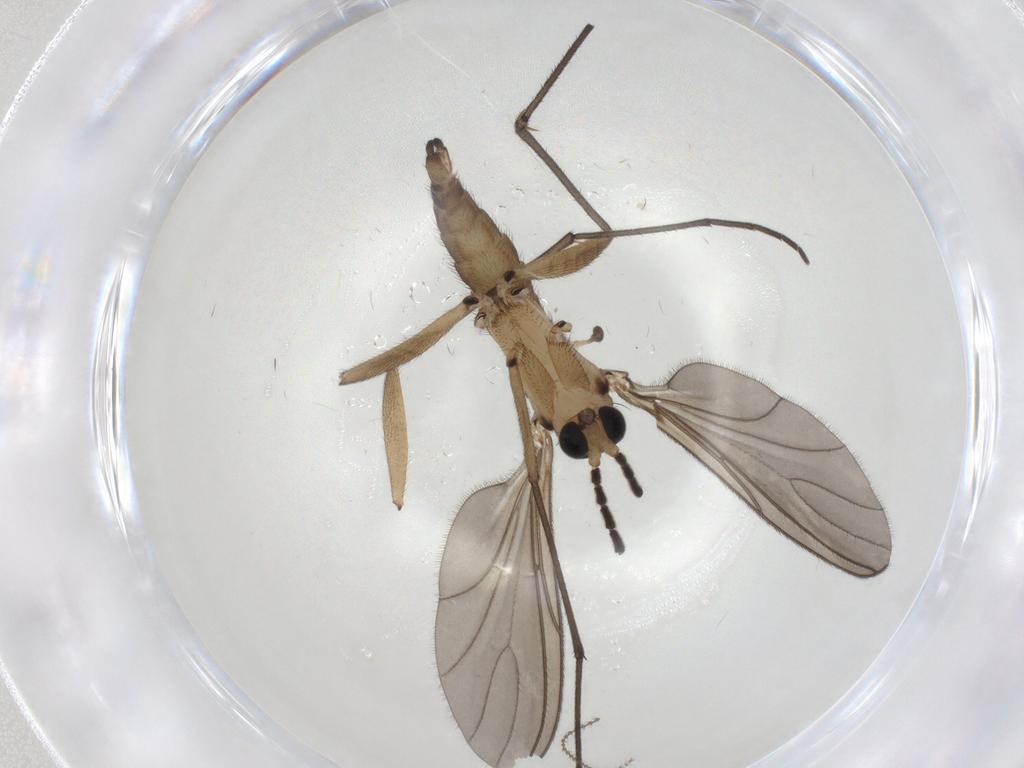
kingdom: Animalia
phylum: Arthropoda
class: Insecta
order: Diptera
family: Sciaridae
